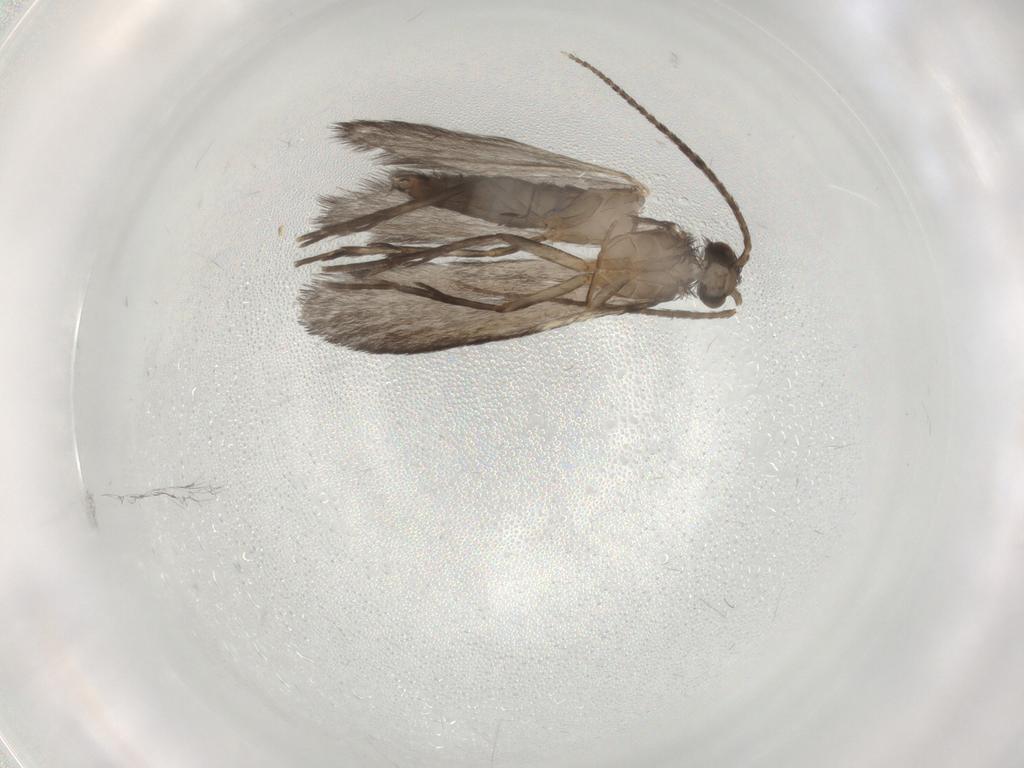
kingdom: Animalia
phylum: Arthropoda
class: Insecta
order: Trichoptera
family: Xiphocentronidae
